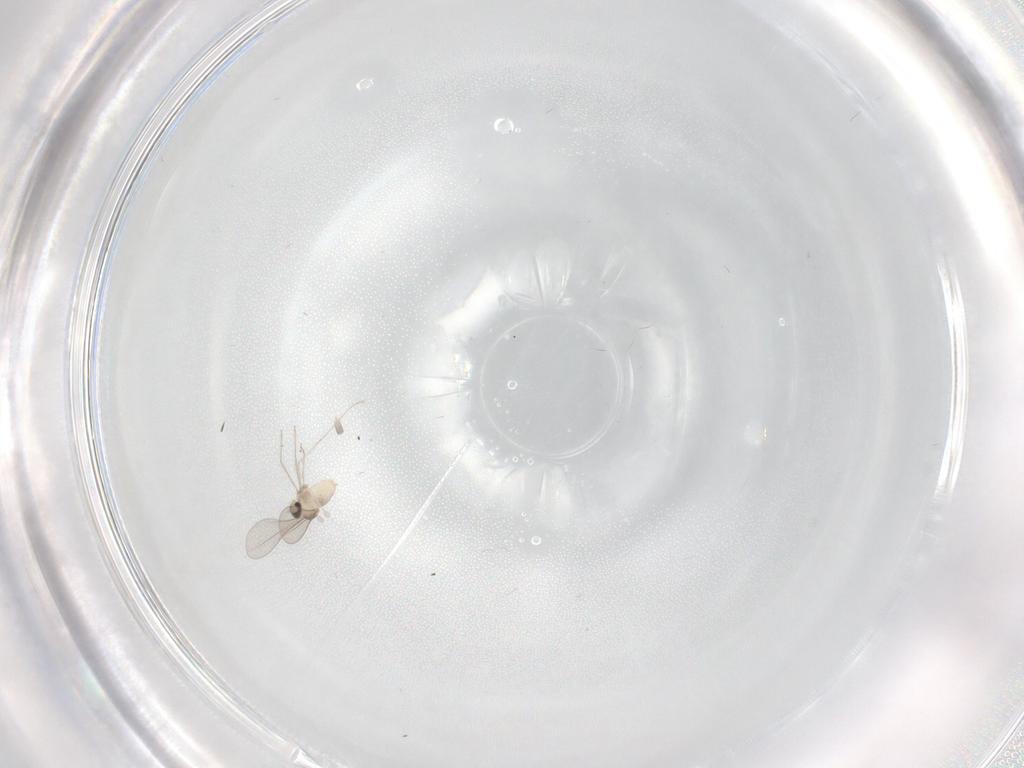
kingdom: Animalia
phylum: Arthropoda
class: Insecta
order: Diptera
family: Cecidomyiidae
